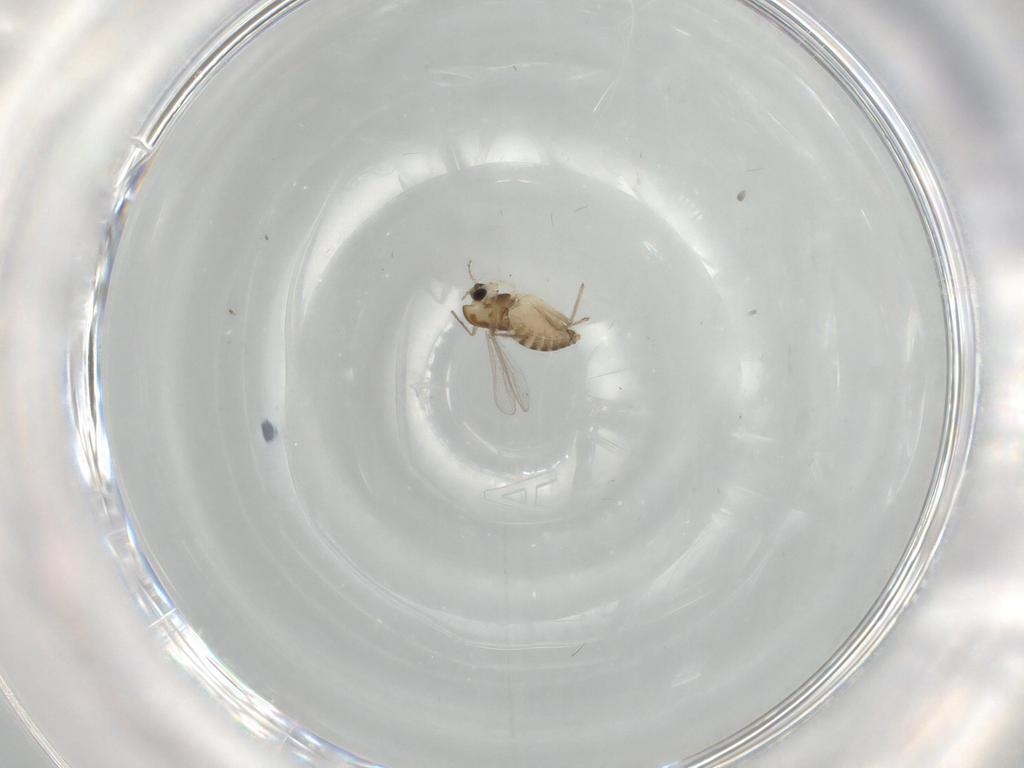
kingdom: Animalia
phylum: Arthropoda
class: Insecta
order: Diptera
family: Chironomidae
